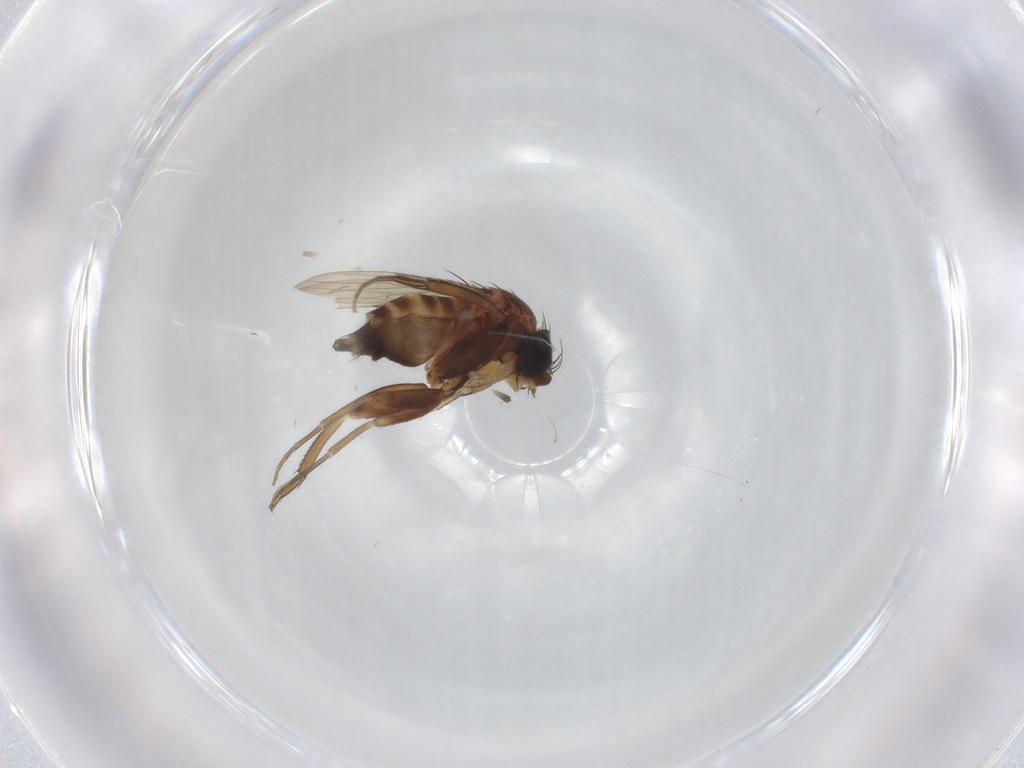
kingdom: Animalia
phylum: Arthropoda
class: Insecta
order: Diptera
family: Phoridae
